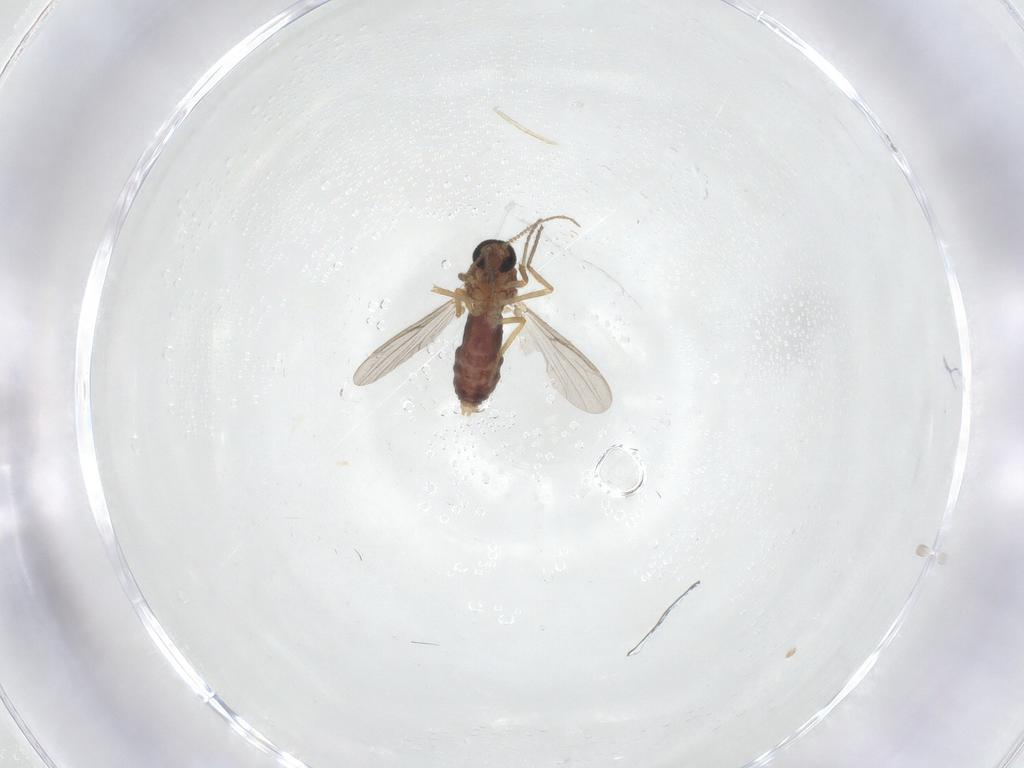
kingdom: Animalia
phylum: Arthropoda
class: Insecta
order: Diptera
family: Ceratopogonidae
